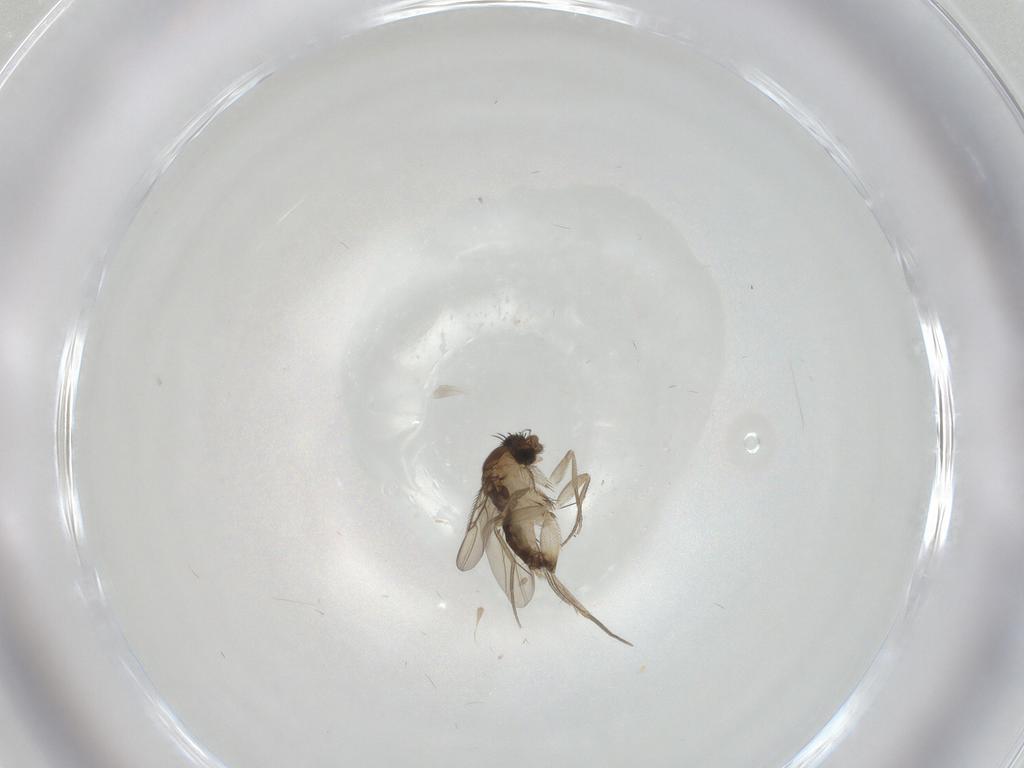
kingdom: Animalia
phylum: Arthropoda
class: Insecta
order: Diptera
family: Phoridae
